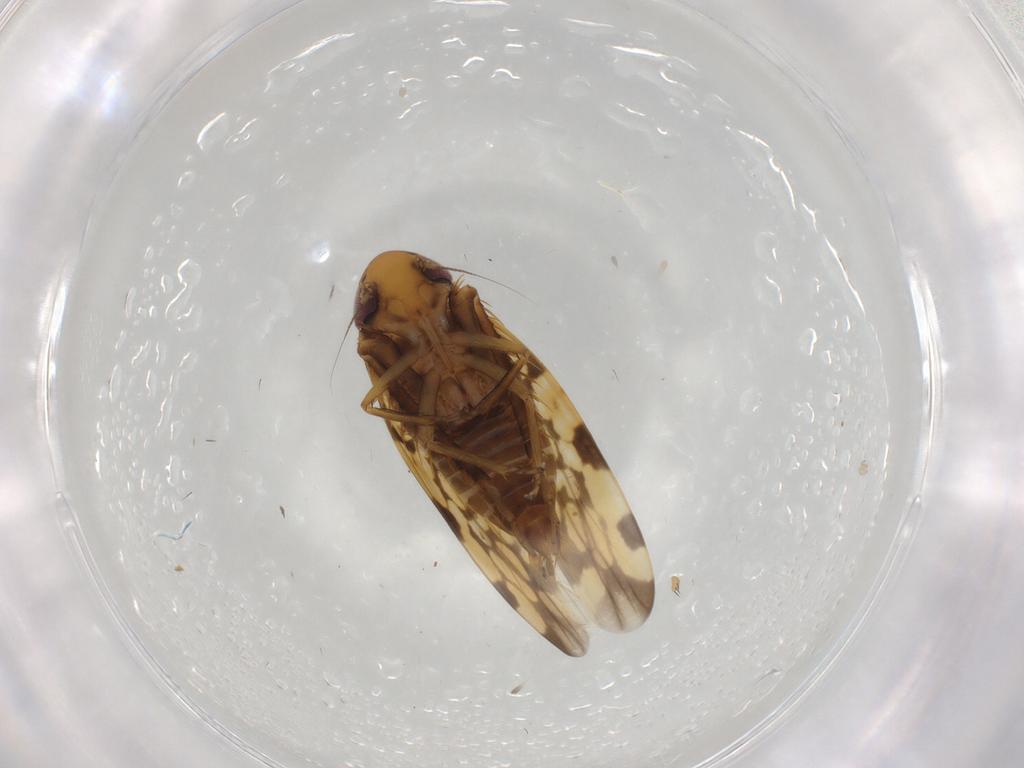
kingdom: Animalia
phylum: Arthropoda
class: Insecta
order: Hemiptera
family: Cicadellidae
